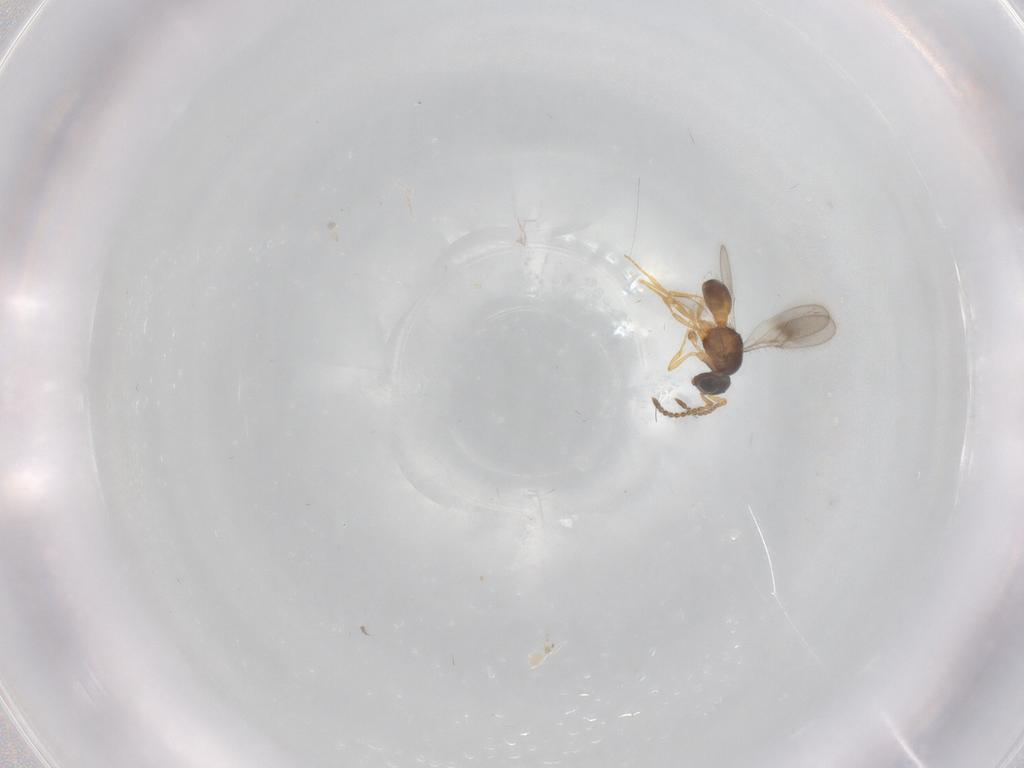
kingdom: Animalia
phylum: Arthropoda
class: Insecta
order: Hymenoptera
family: Scelionidae
